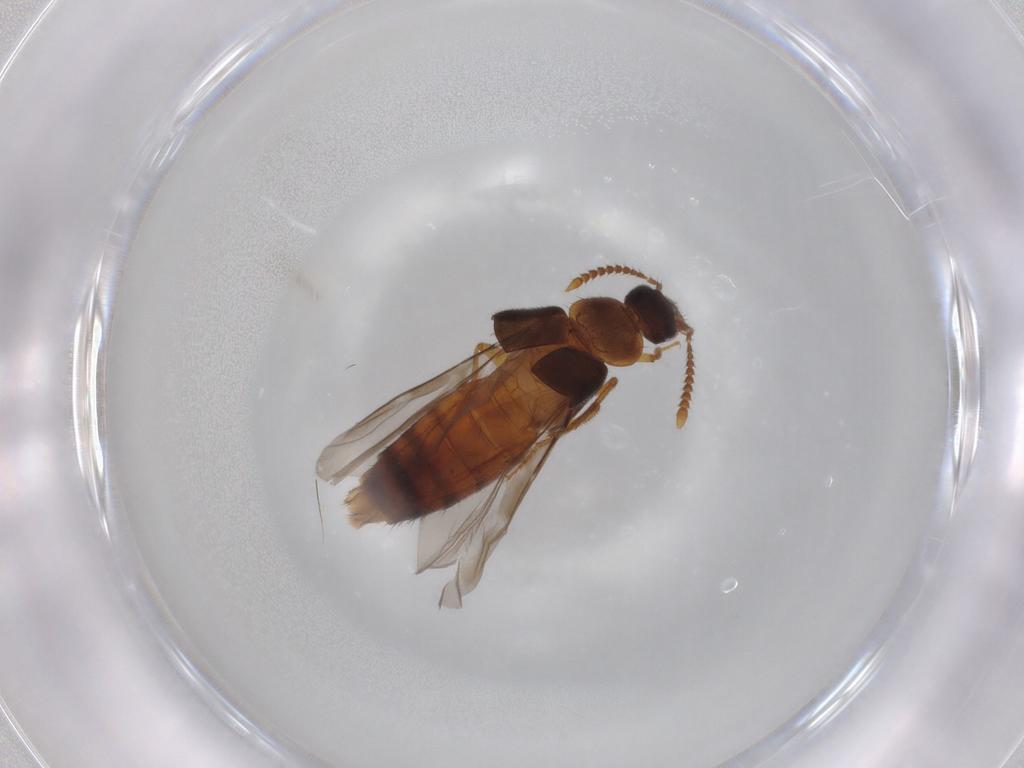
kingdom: Animalia
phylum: Arthropoda
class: Insecta
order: Coleoptera
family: Staphylinidae
